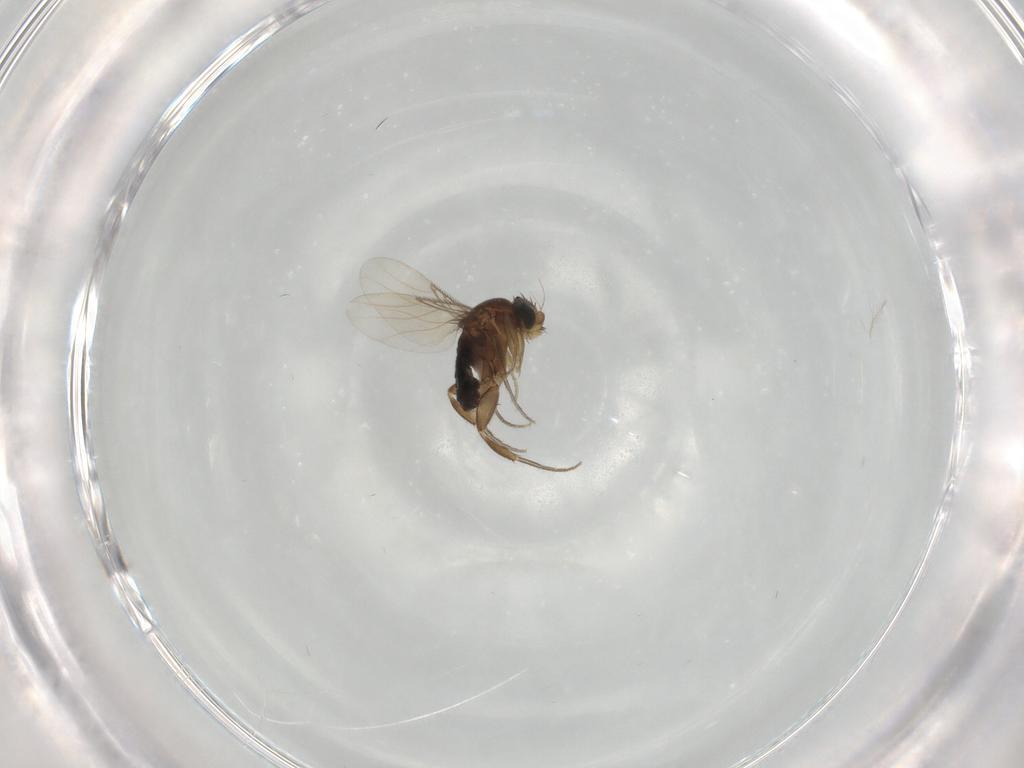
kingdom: Animalia
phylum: Arthropoda
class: Insecta
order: Diptera
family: Phoridae
